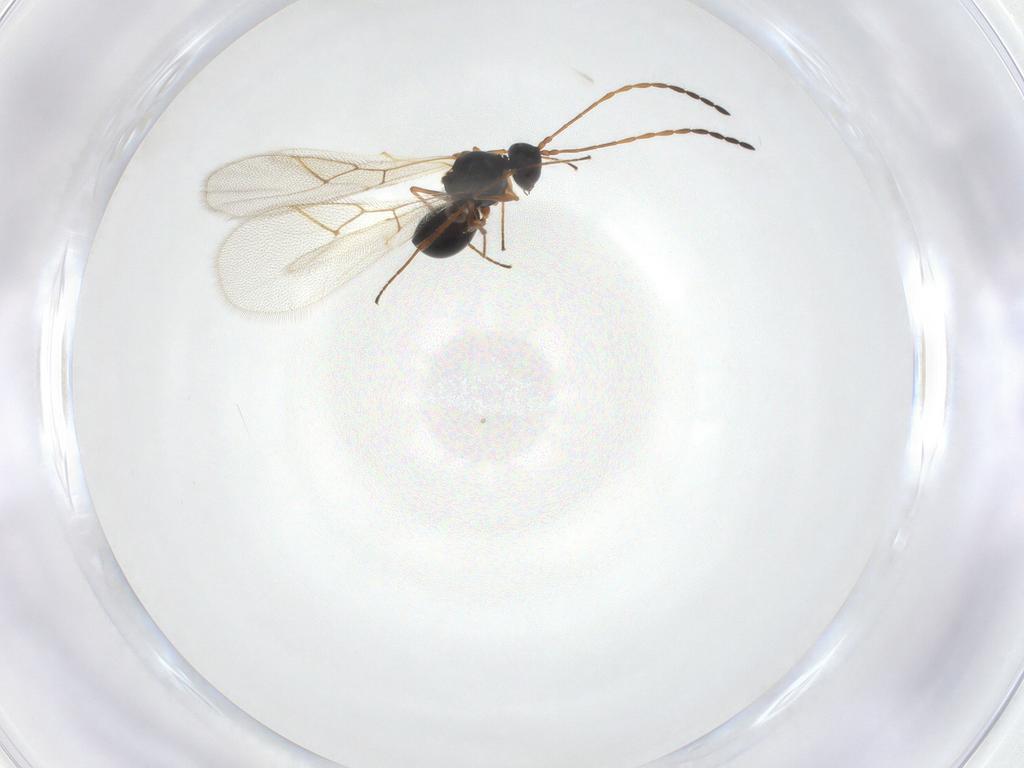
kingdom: Animalia
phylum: Arthropoda
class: Insecta
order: Hymenoptera
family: Figitidae
